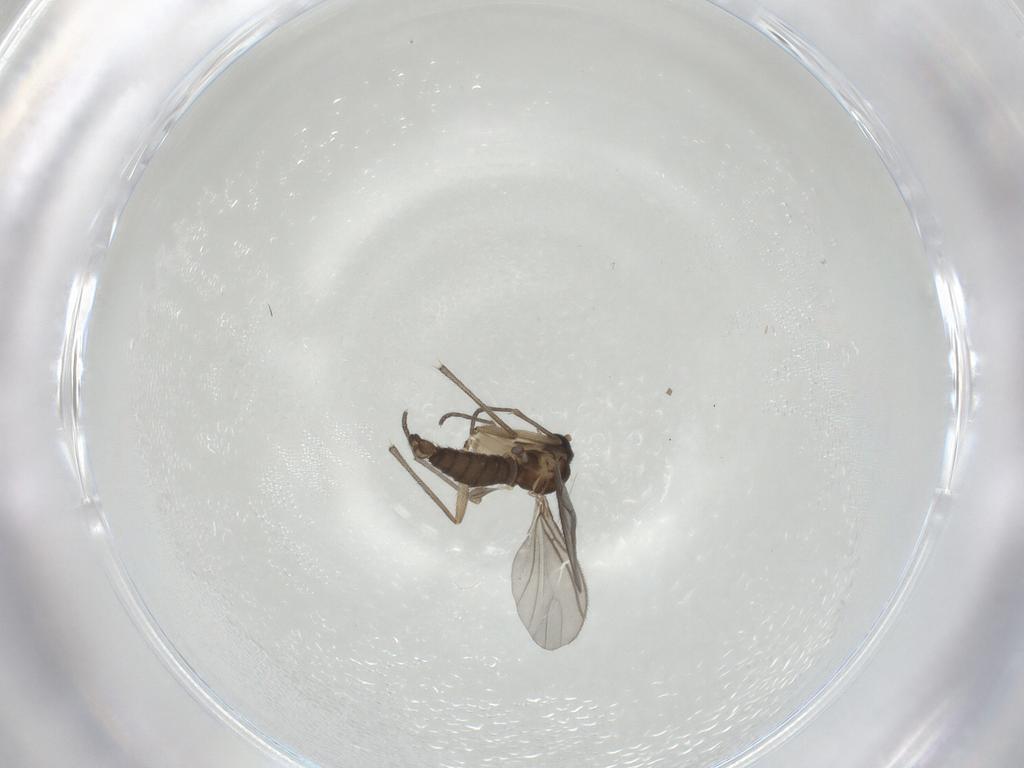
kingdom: Animalia
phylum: Arthropoda
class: Insecta
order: Diptera
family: Sciaridae
